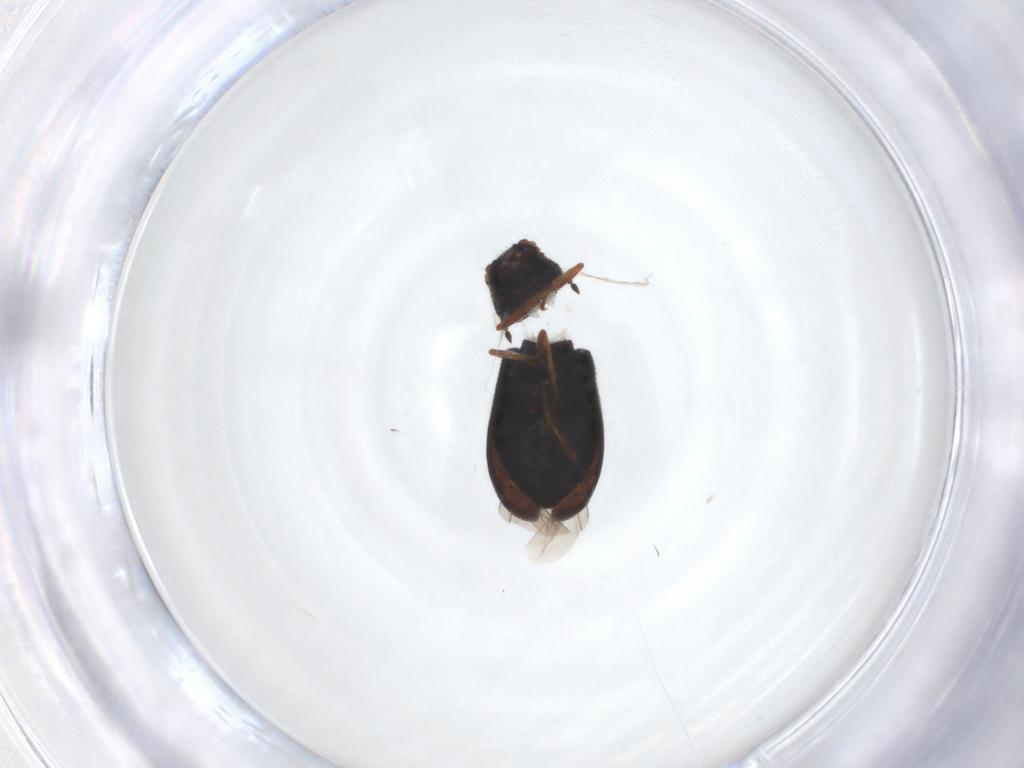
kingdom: Animalia
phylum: Arthropoda
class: Insecta
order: Coleoptera
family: Melyridae
